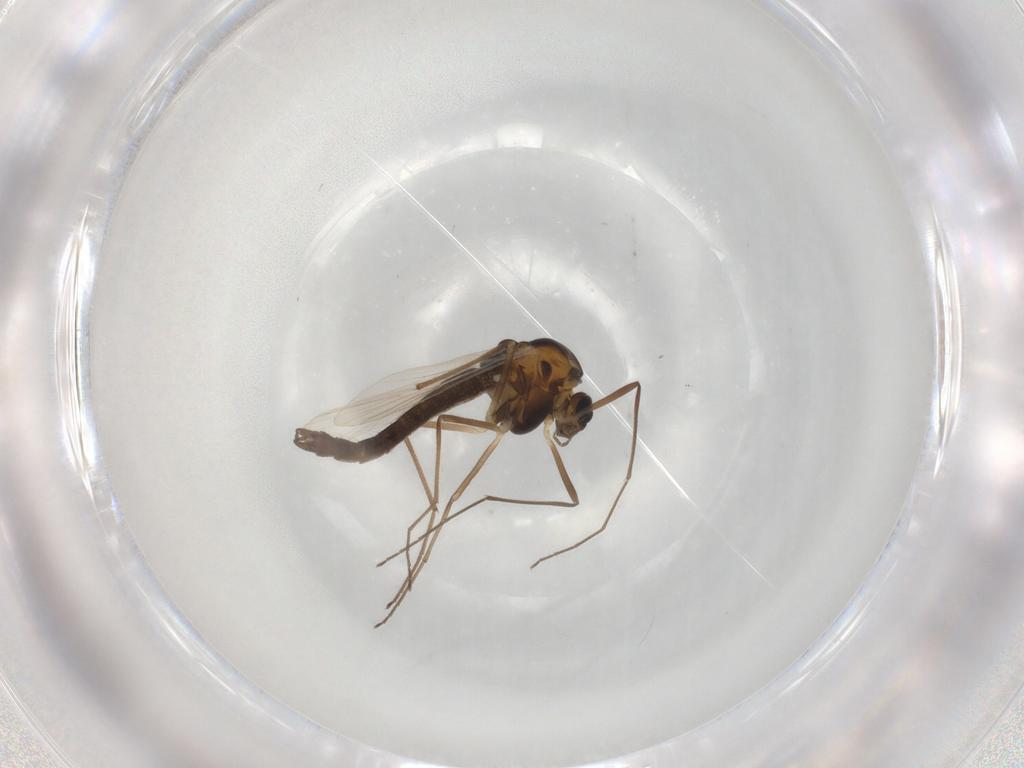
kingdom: Animalia
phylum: Arthropoda
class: Insecta
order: Diptera
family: Chironomidae
